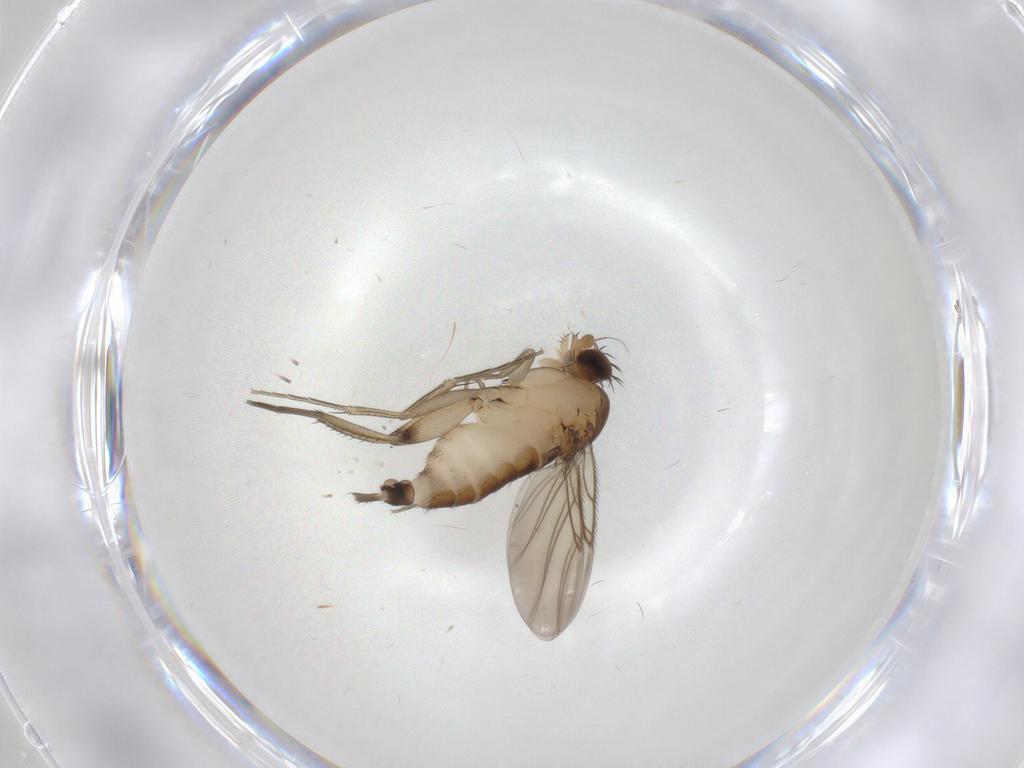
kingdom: Animalia
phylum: Arthropoda
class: Insecta
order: Diptera
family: Phoridae
